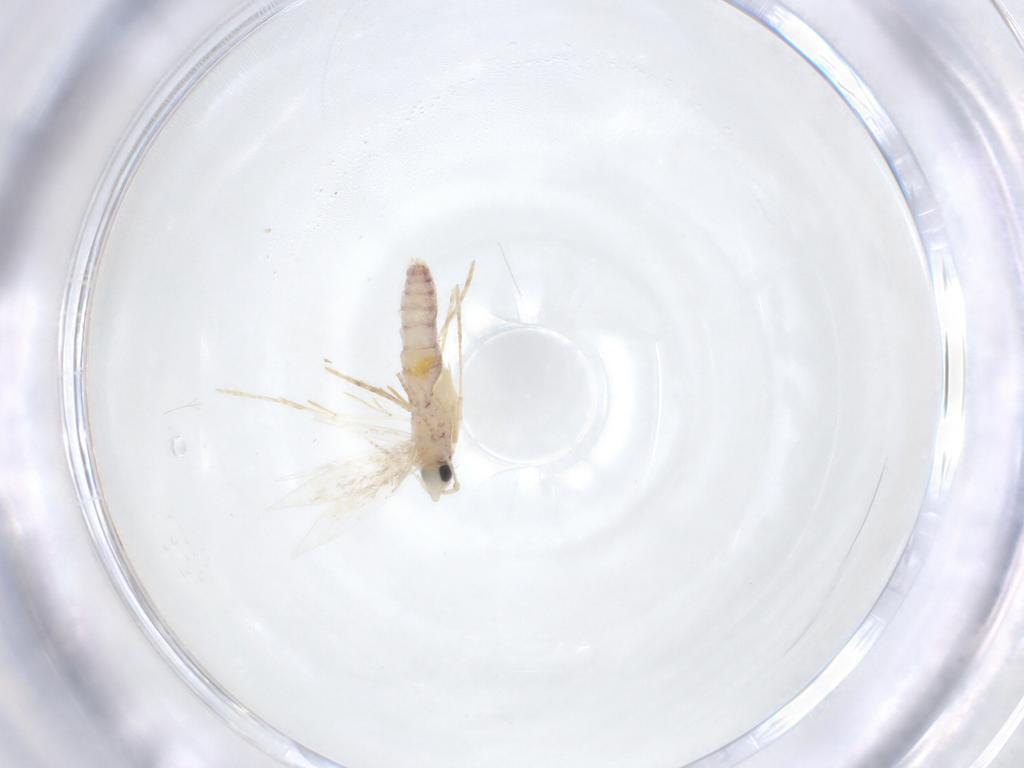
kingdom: Animalia
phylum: Arthropoda
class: Insecta
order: Lepidoptera
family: Tineidae
